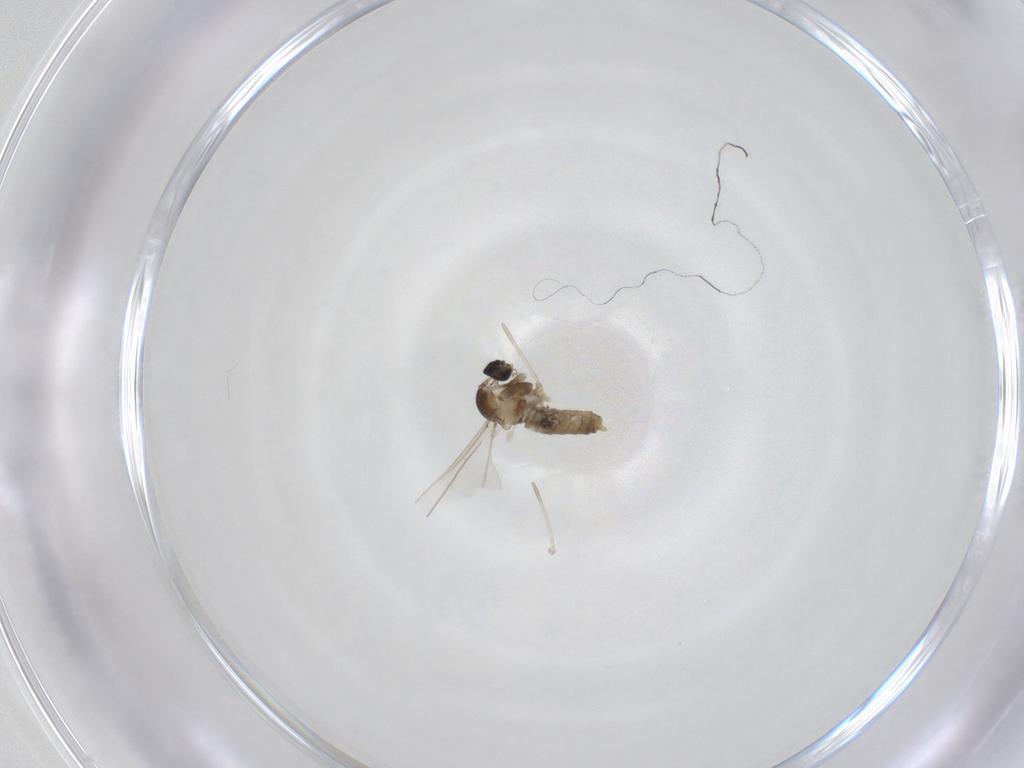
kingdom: Animalia
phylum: Arthropoda
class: Insecta
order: Diptera
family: Cecidomyiidae
